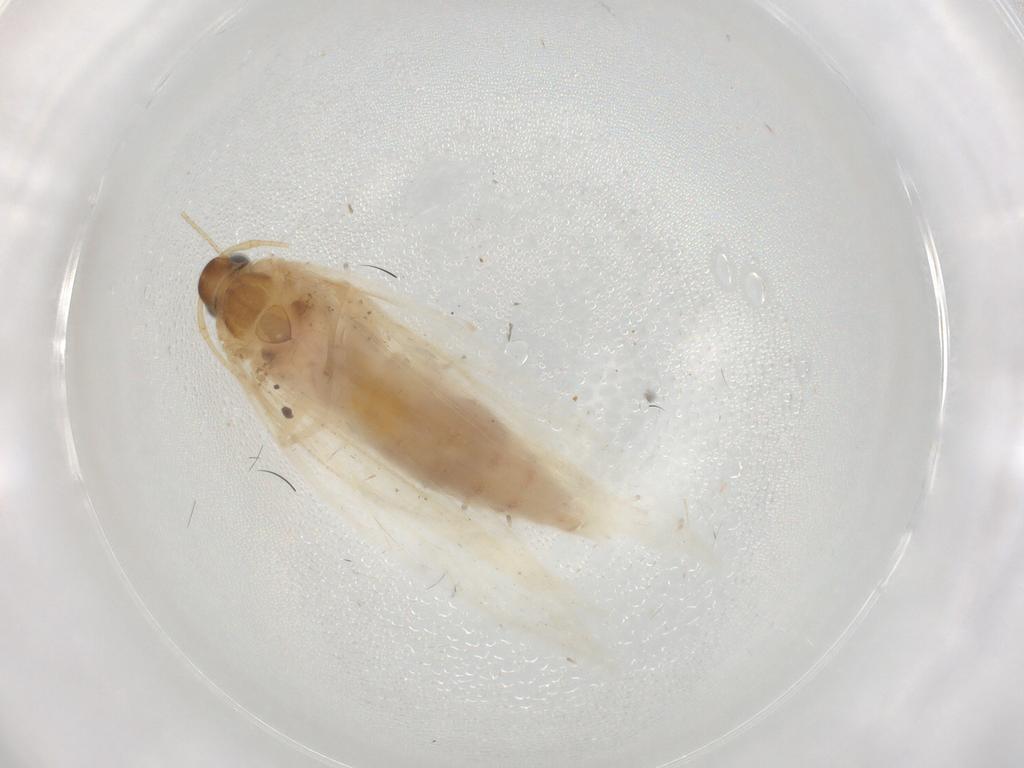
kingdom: Animalia
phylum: Arthropoda
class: Insecta
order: Lepidoptera
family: Gelechiidae
